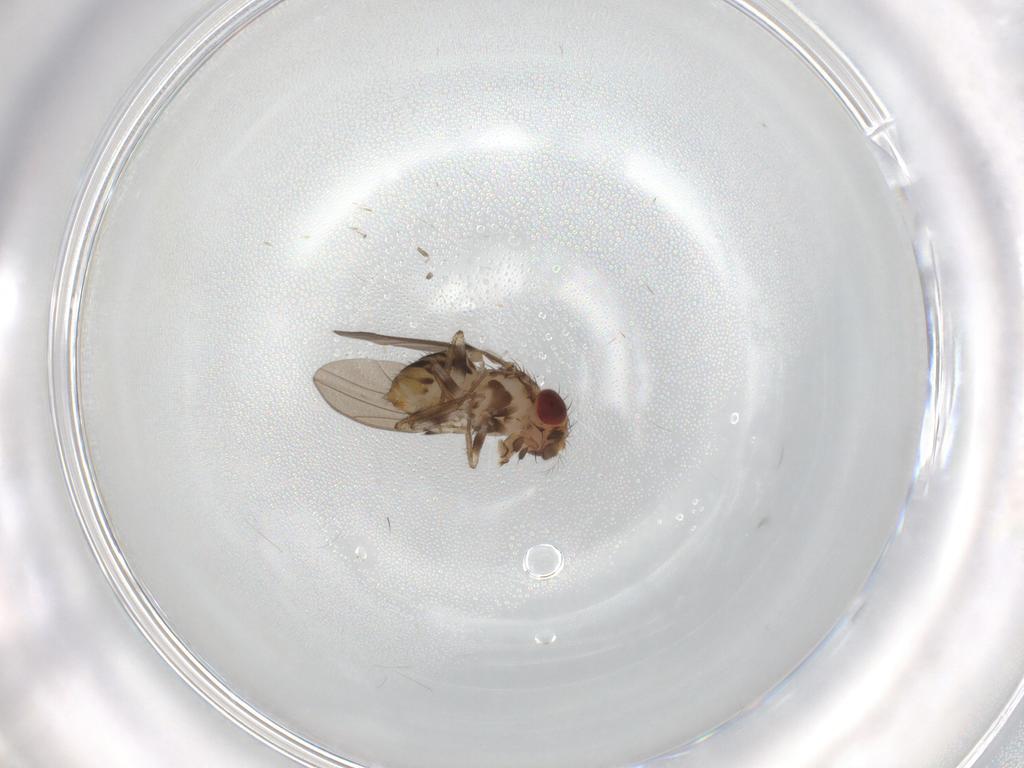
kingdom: Animalia
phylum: Arthropoda
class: Insecta
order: Diptera
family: Drosophilidae
